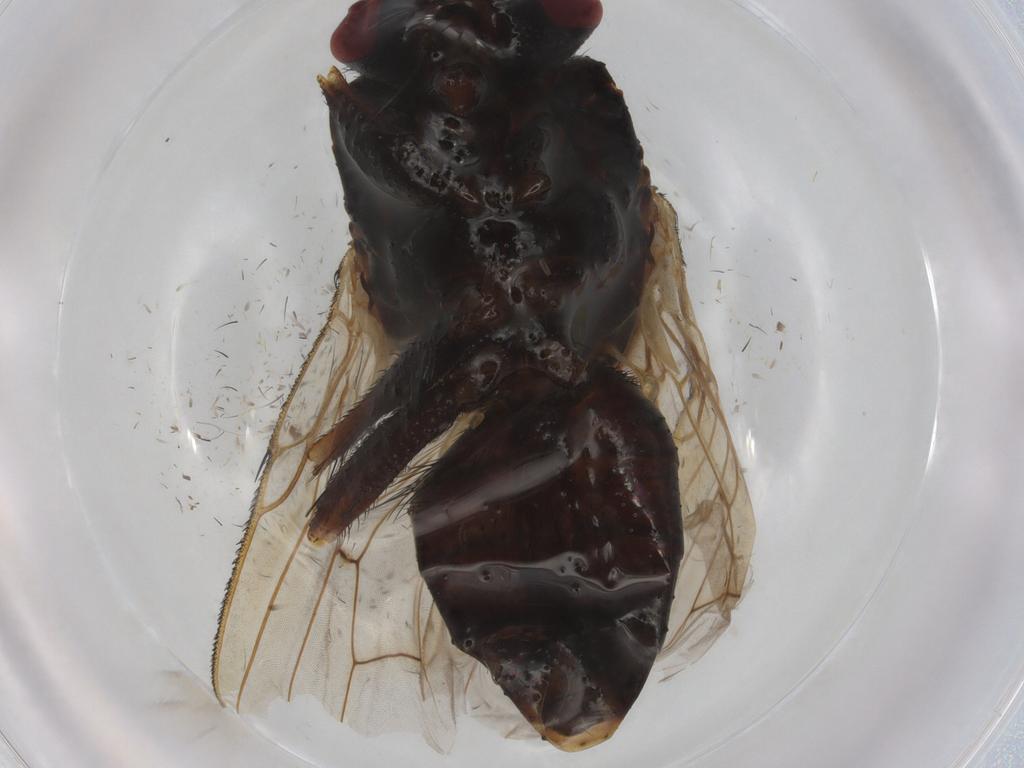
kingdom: Animalia
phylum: Arthropoda
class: Insecta
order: Diptera
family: Muscidae
